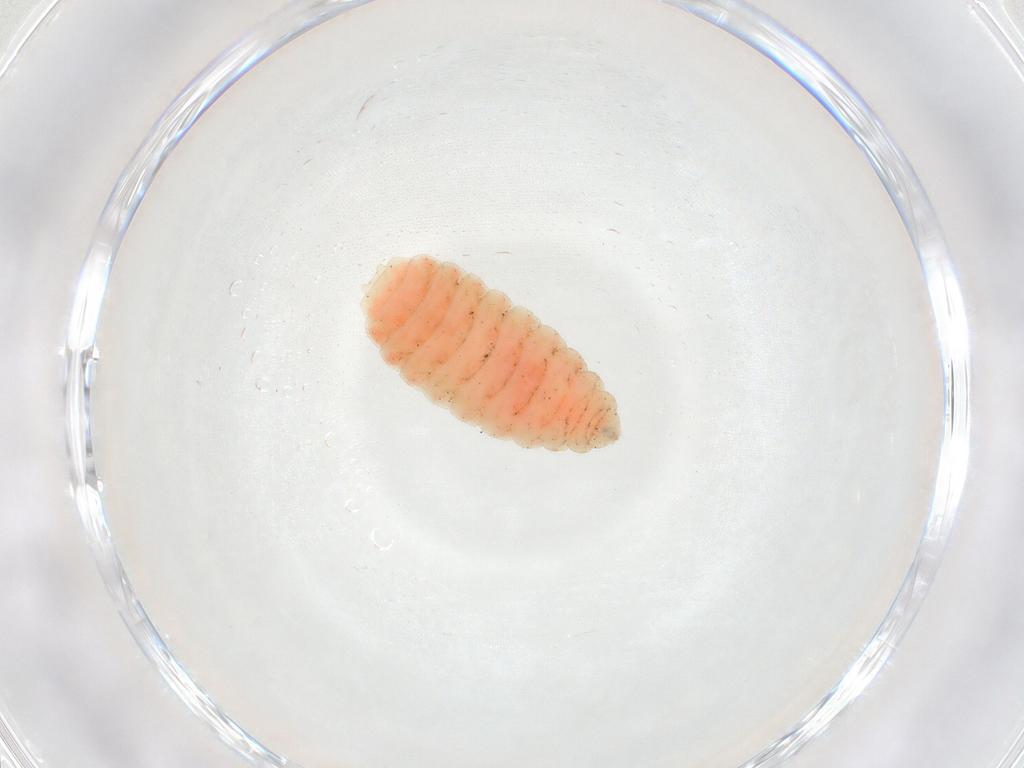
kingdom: Animalia
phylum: Arthropoda
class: Insecta
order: Diptera
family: Cecidomyiidae
